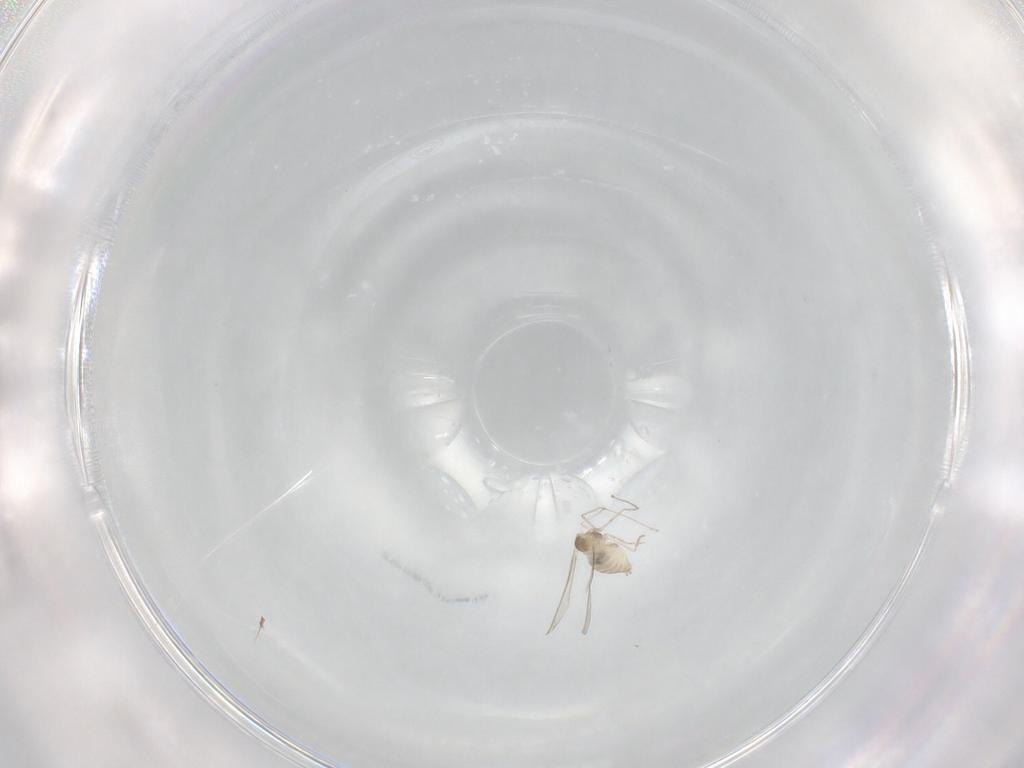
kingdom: Animalia
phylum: Arthropoda
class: Insecta
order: Diptera
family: Cecidomyiidae
